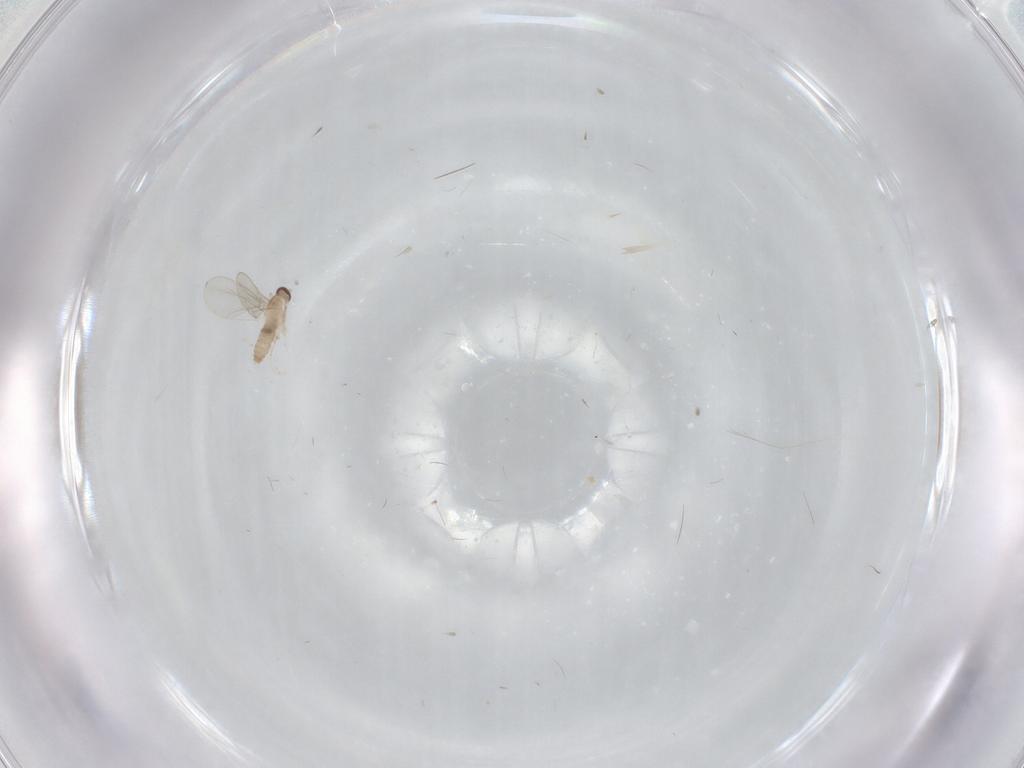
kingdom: Animalia
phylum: Arthropoda
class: Insecta
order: Diptera
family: Cecidomyiidae
